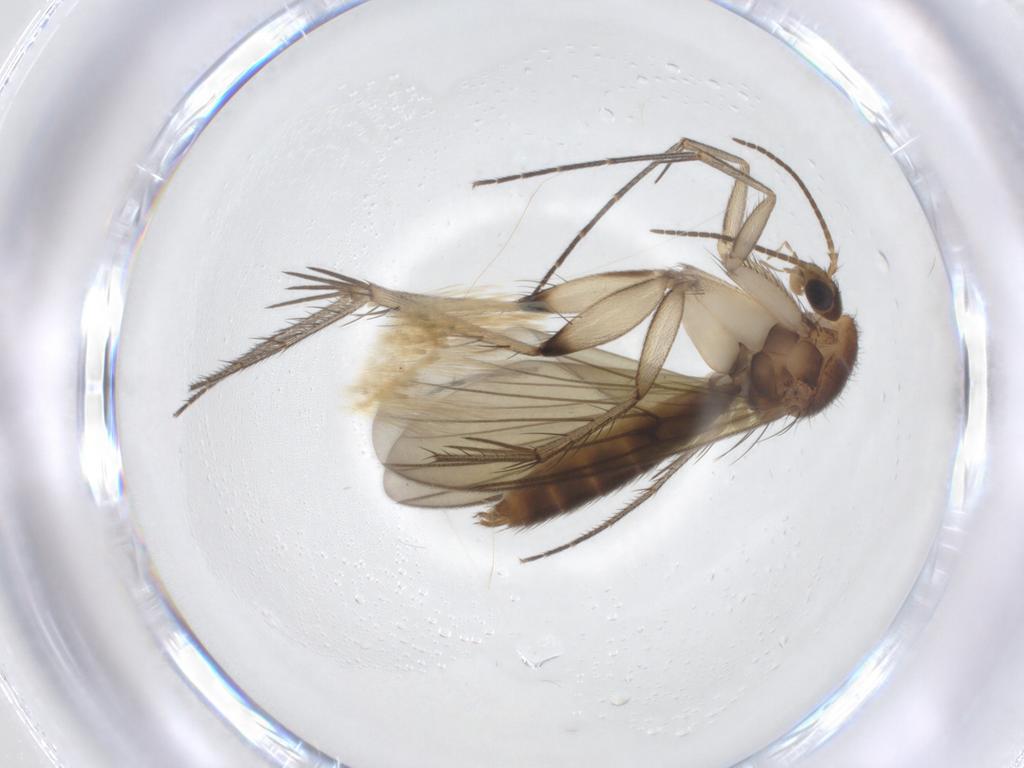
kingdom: Animalia
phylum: Arthropoda
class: Insecta
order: Diptera
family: Mycetophilidae
